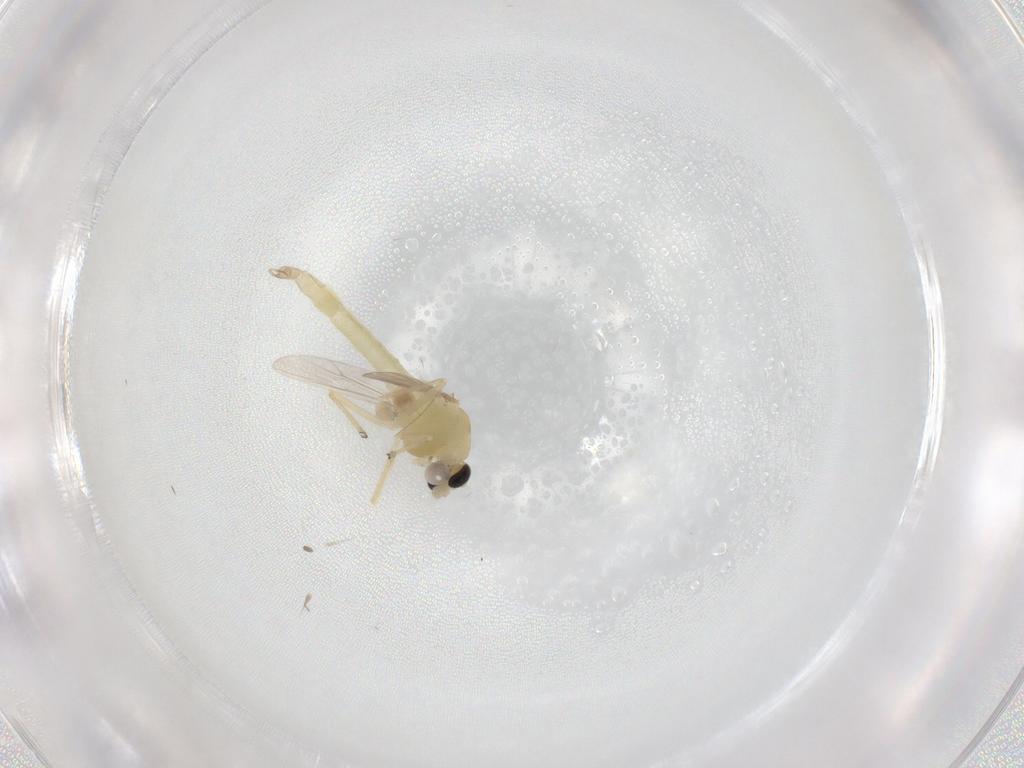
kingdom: Animalia
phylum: Arthropoda
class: Insecta
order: Diptera
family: Chironomidae
